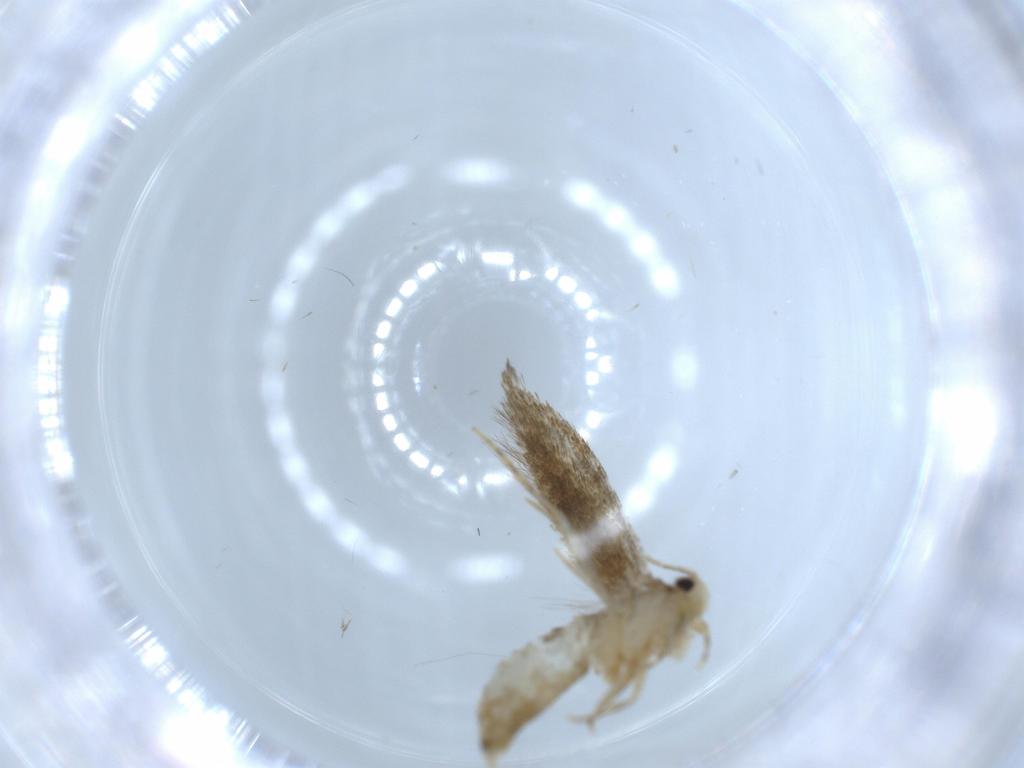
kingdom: Animalia
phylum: Arthropoda
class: Insecta
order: Lepidoptera
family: Tineidae
